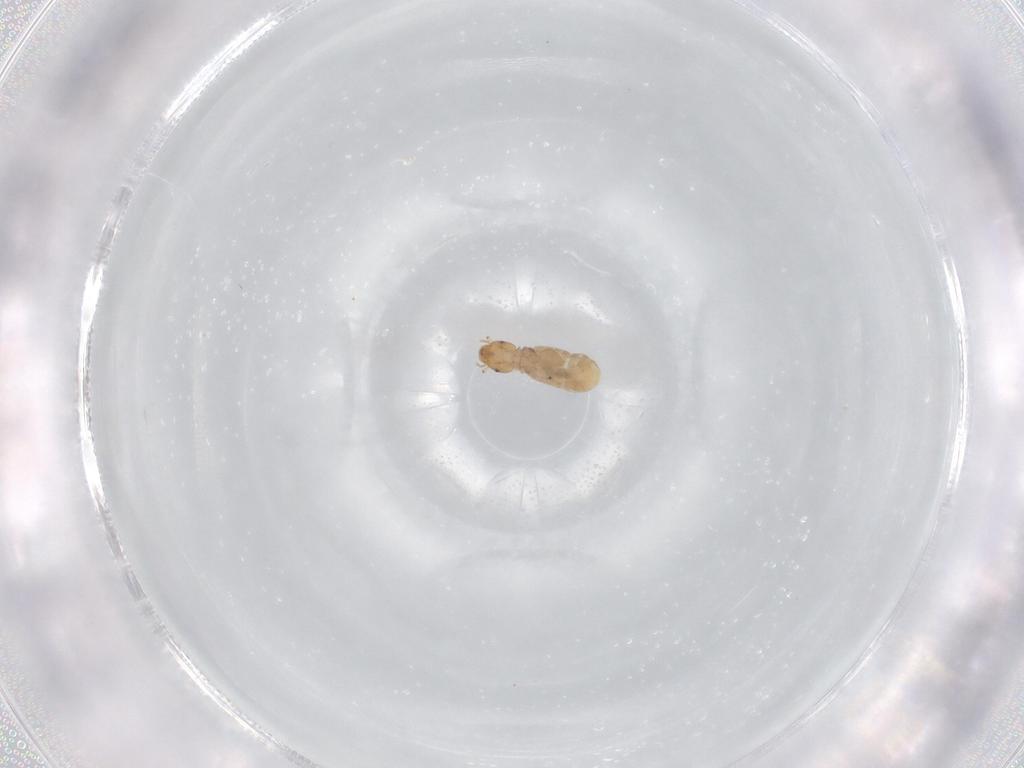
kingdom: Animalia
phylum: Arthropoda
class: Insecta
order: Psocodea
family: Liposcelididae
